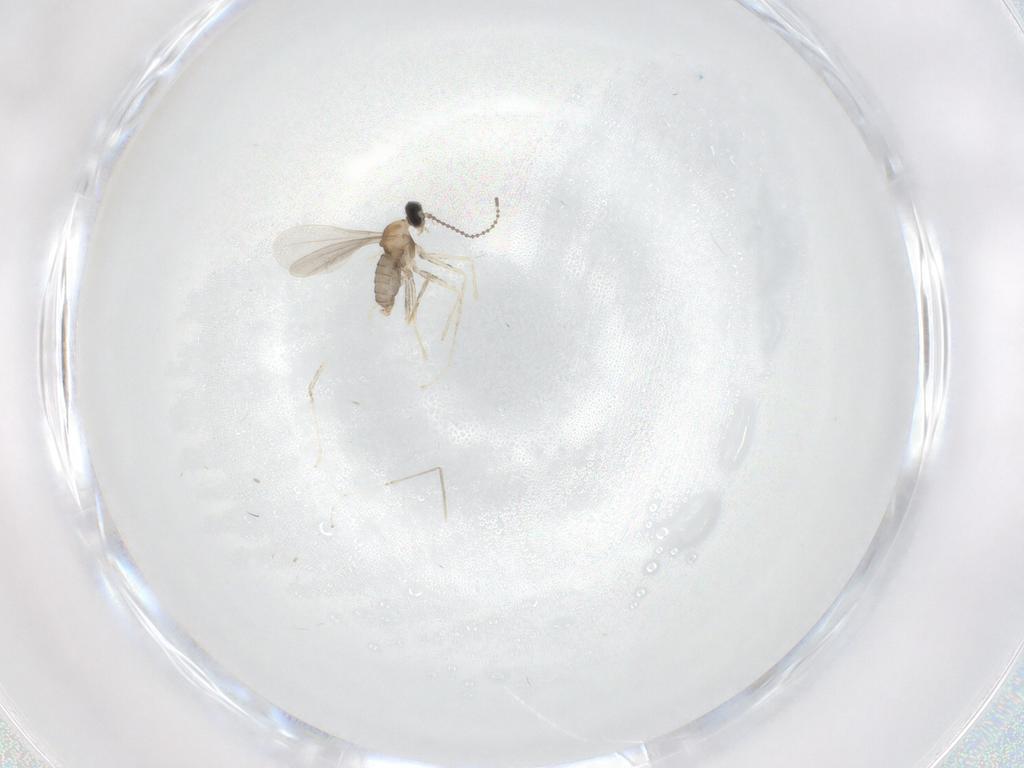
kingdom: Animalia
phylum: Arthropoda
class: Insecta
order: Diptera
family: Cecidomyiidae
